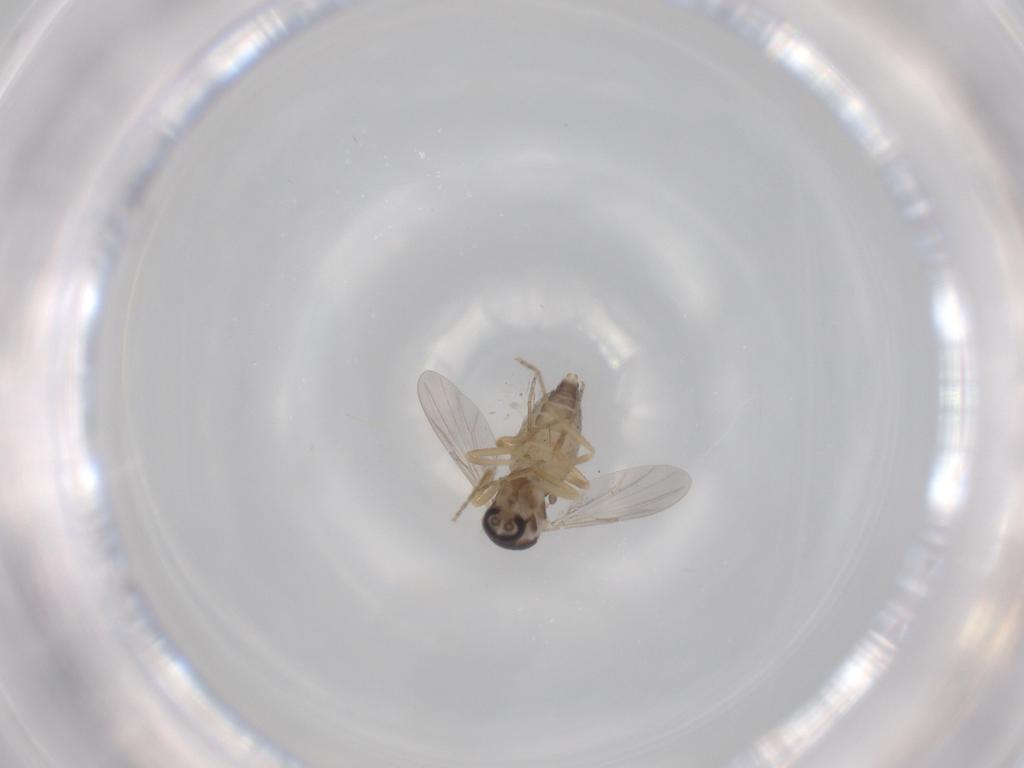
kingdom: Animalia
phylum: Arthropoda
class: Insecta
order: Diptera
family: Ceratopogonidae
